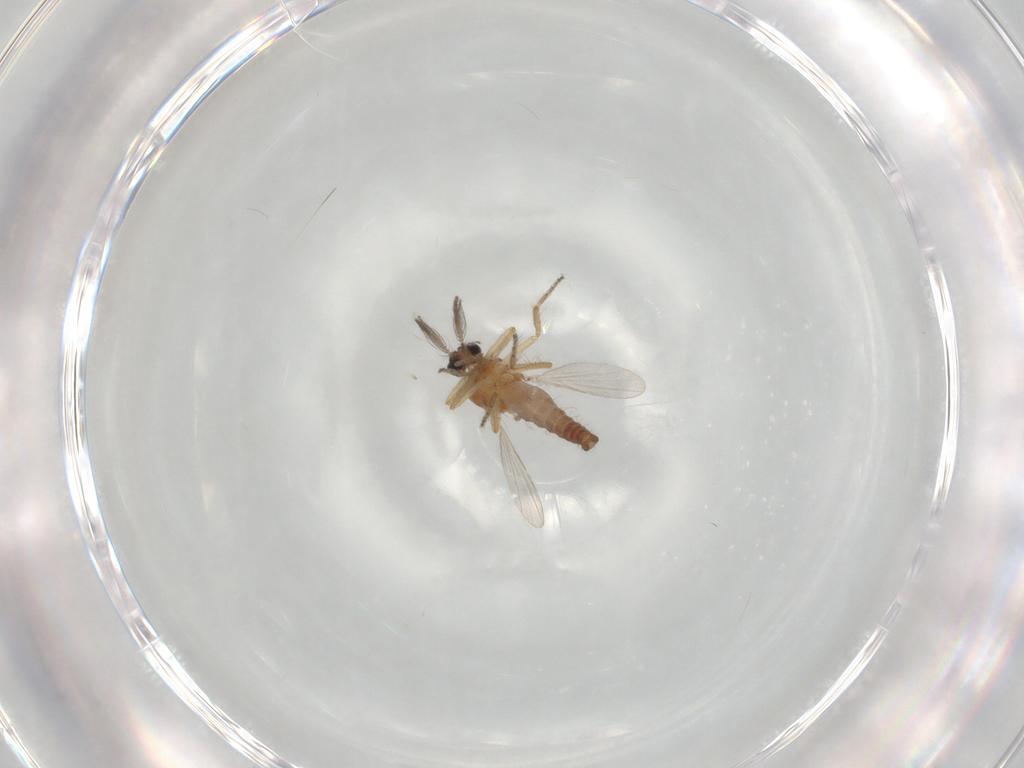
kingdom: Animalia
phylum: Arthropoda
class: Insecta
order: Diptera
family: Ceratopogonidae
